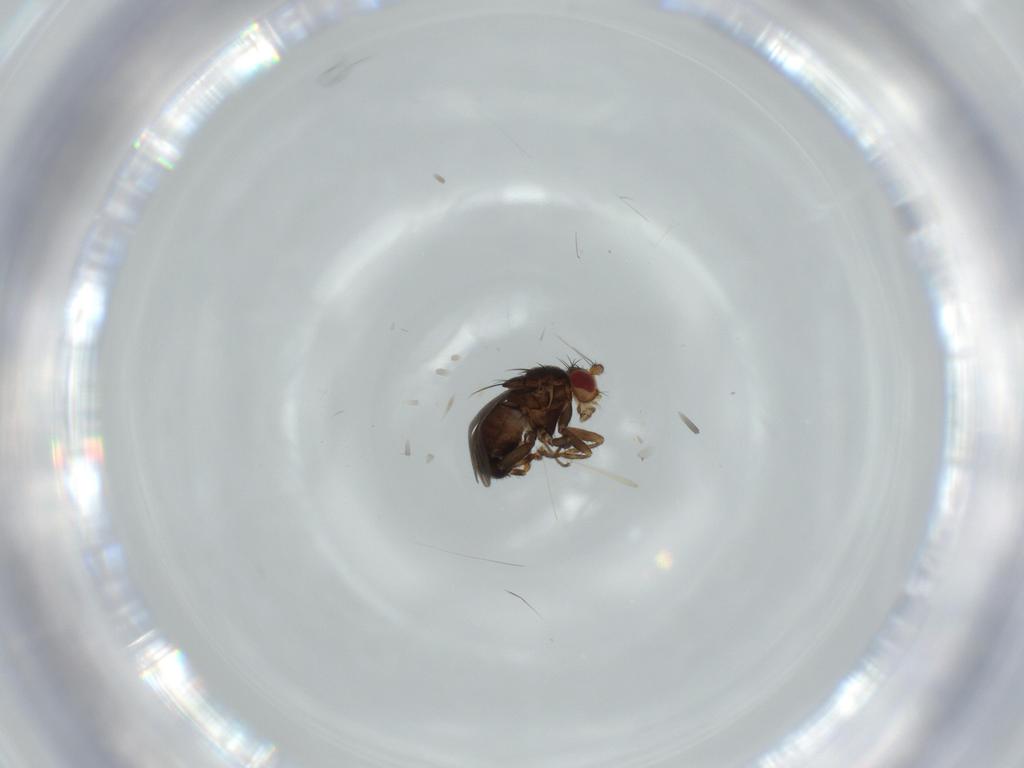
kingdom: Animalia
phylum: Arthropoda
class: Insecta
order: Diptera
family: Sphaeroceridae
